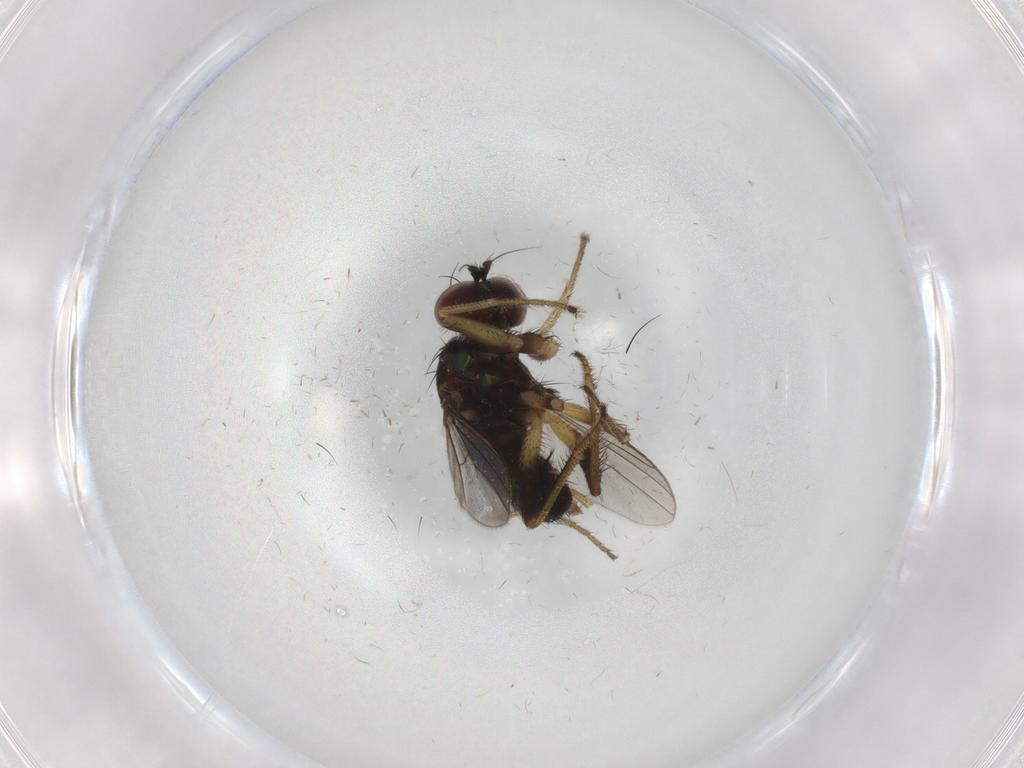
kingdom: Animalia
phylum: Arthropoda
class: Insecta
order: Diptera
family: Dolichopodidae
